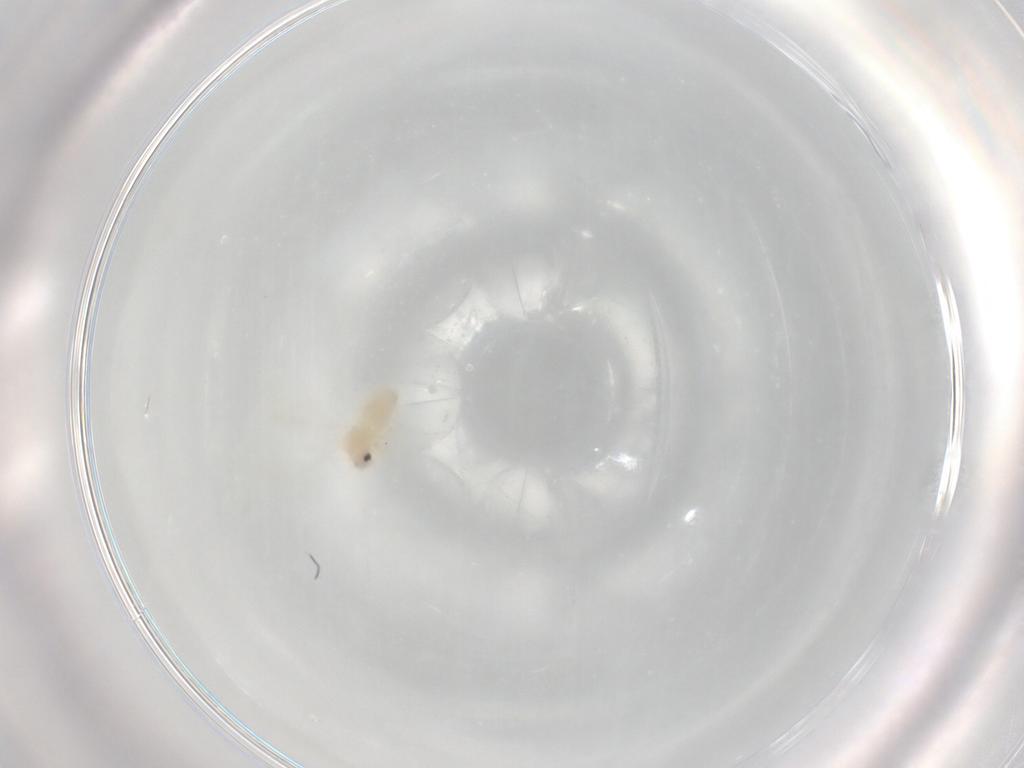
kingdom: Animalia
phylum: Arthropoda
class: Insecta
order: Hemiptera
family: Aleyrodidae
